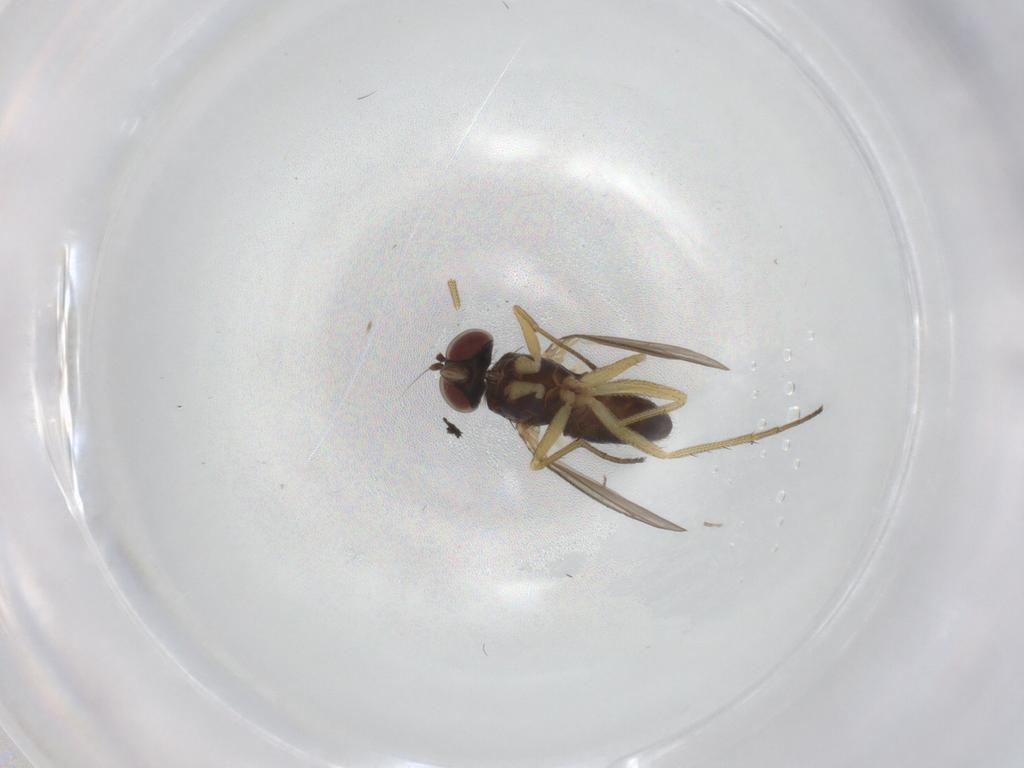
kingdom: Animalia
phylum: Arthropoda
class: Insecta
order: Diptera
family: Dolichopodidae
